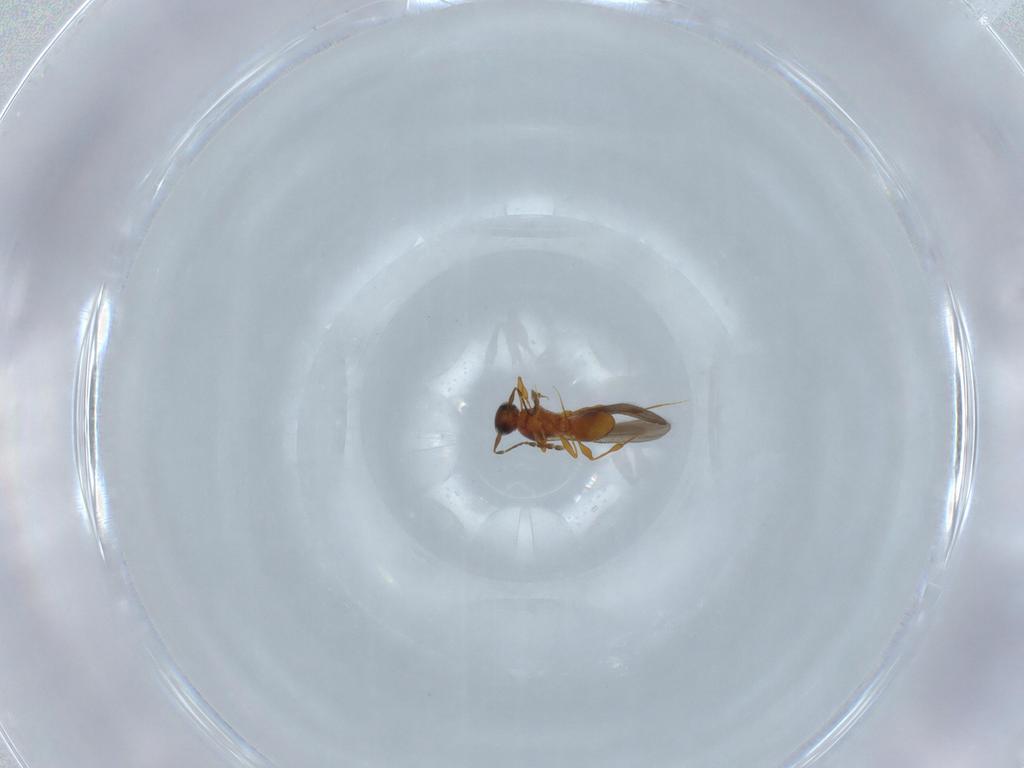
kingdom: Animalia
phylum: Arthropoda
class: Insecta
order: Hymenoptera
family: Platygastridae
